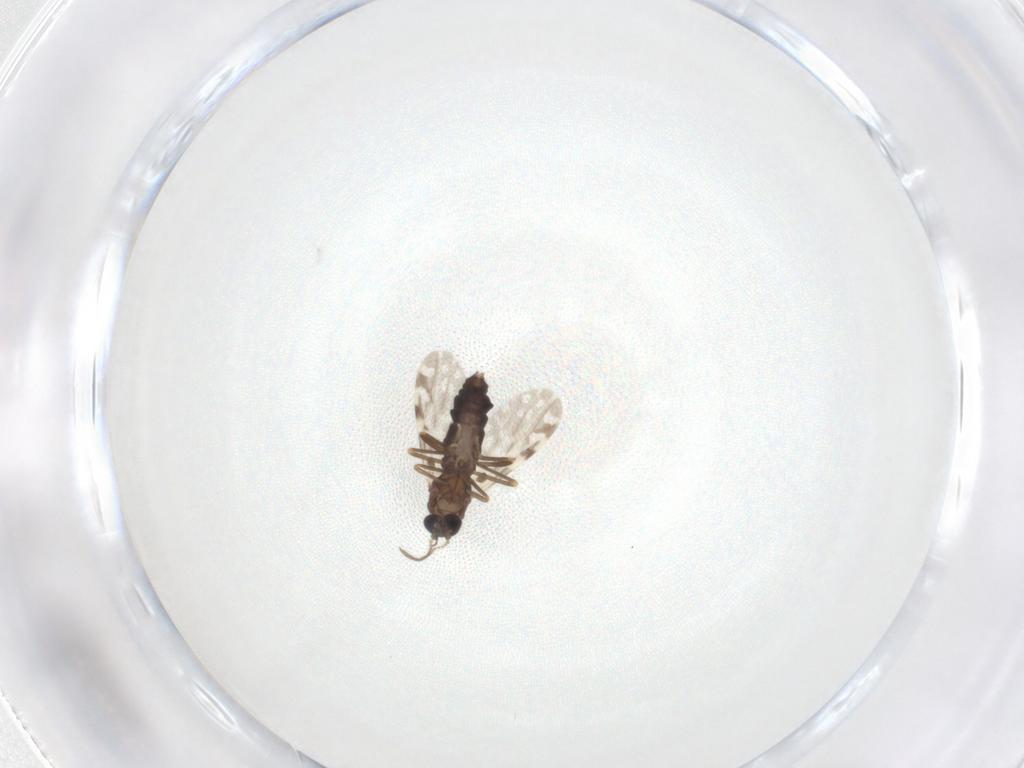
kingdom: Animalia
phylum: Arthropoda
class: Insecta
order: Diptera
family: Ceratopogonidae
